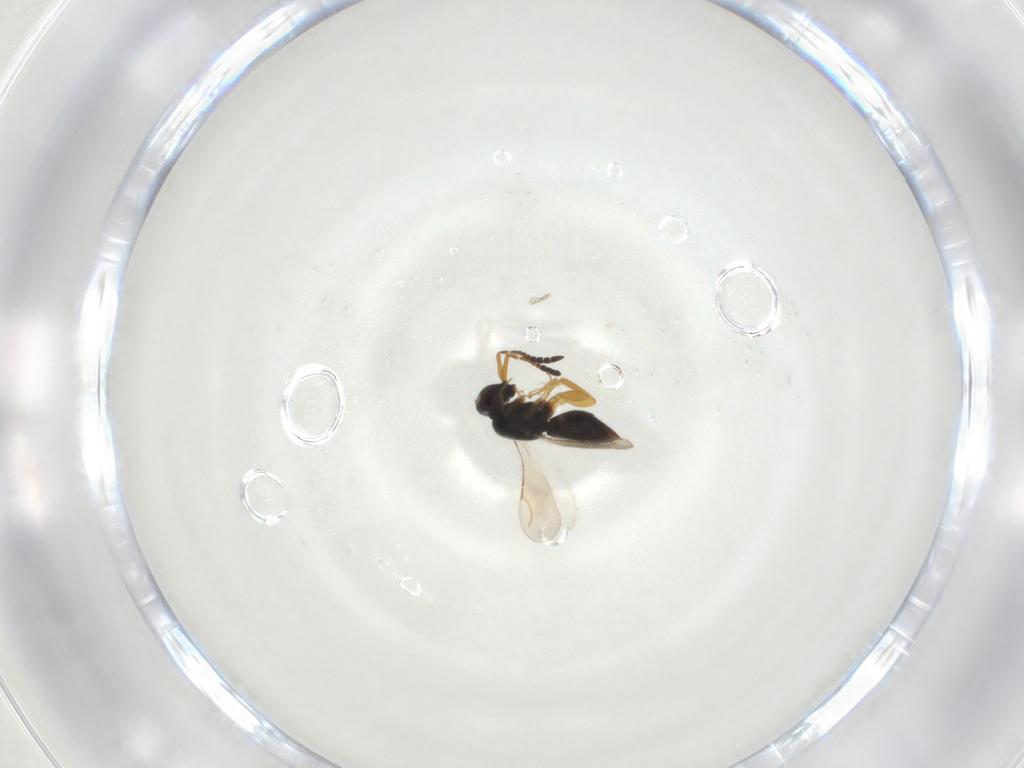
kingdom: Animalia
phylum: Arthropoda
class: Insecta
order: Hymenoptera
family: Ceraphronidae
